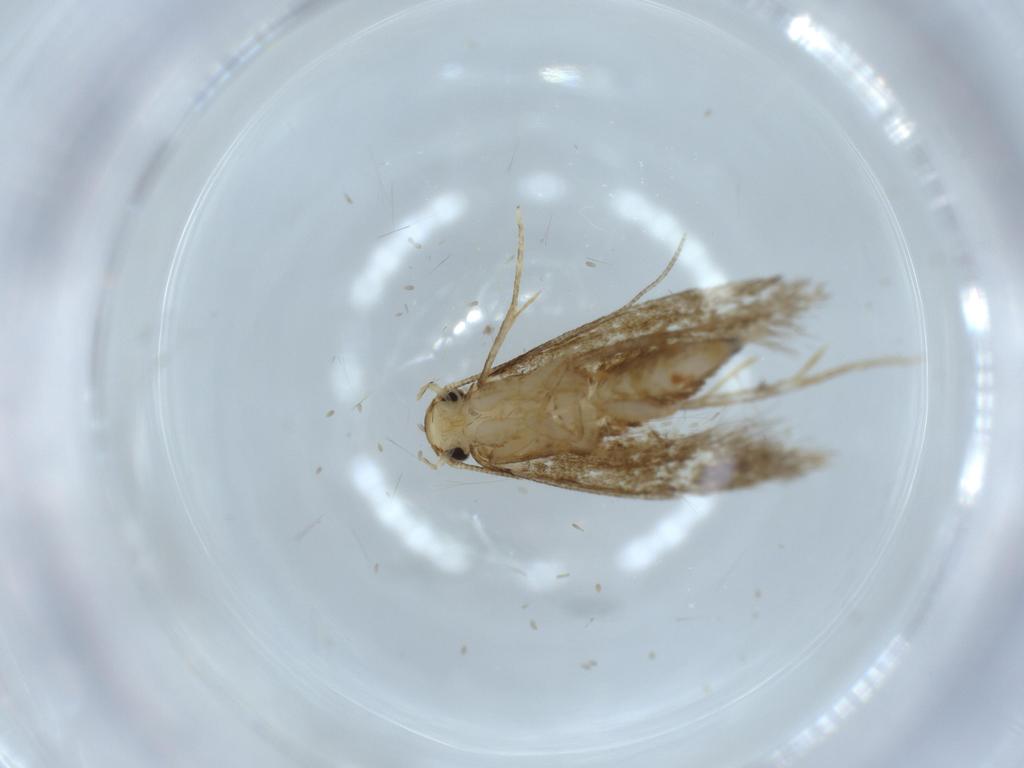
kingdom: Animalia
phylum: Arthropoda
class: Insecta
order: Lepidoptera
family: Tineidae
